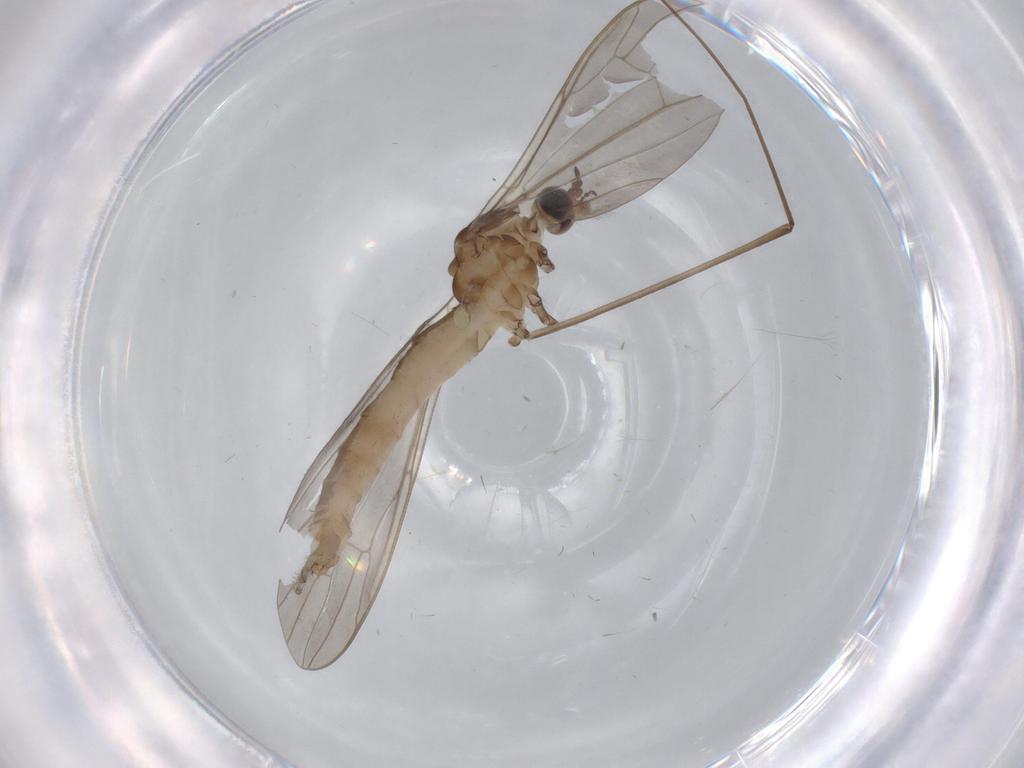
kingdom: Animalia
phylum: Arthropoda
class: Insecta
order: Diptera
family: Limoniidae
